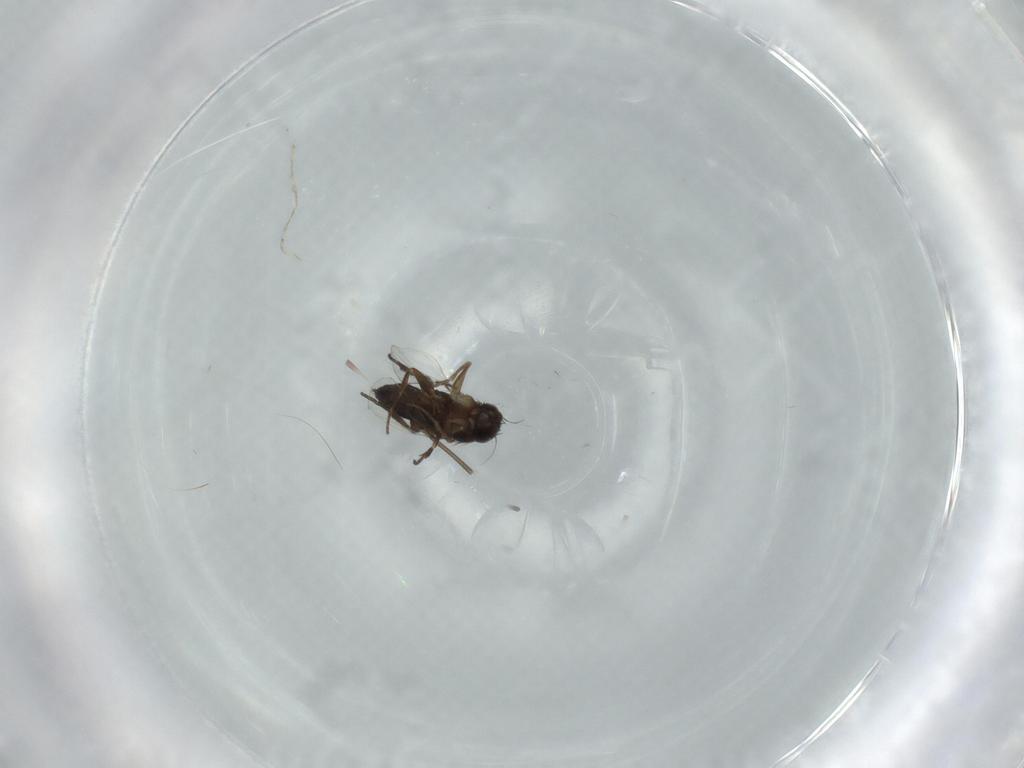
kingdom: Animalia
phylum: Arthropoda
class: Insecta
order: Diptera
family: Phoridae
